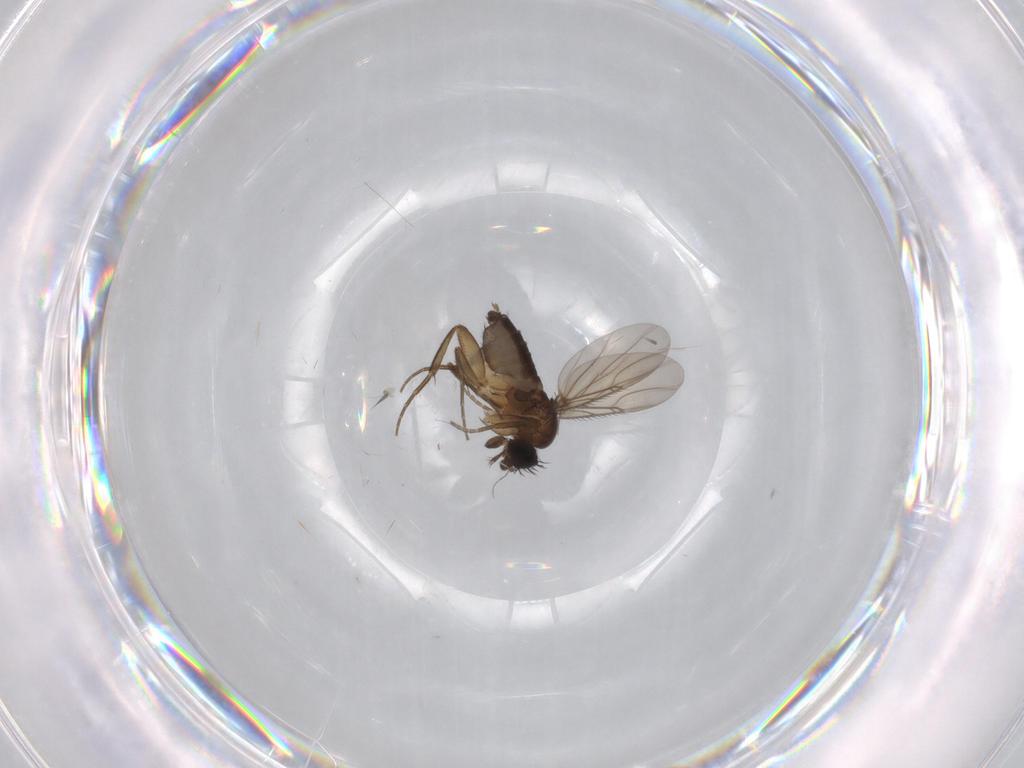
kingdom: Animalia
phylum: Arthropoda
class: Insecta
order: Diptera
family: Phoridae
